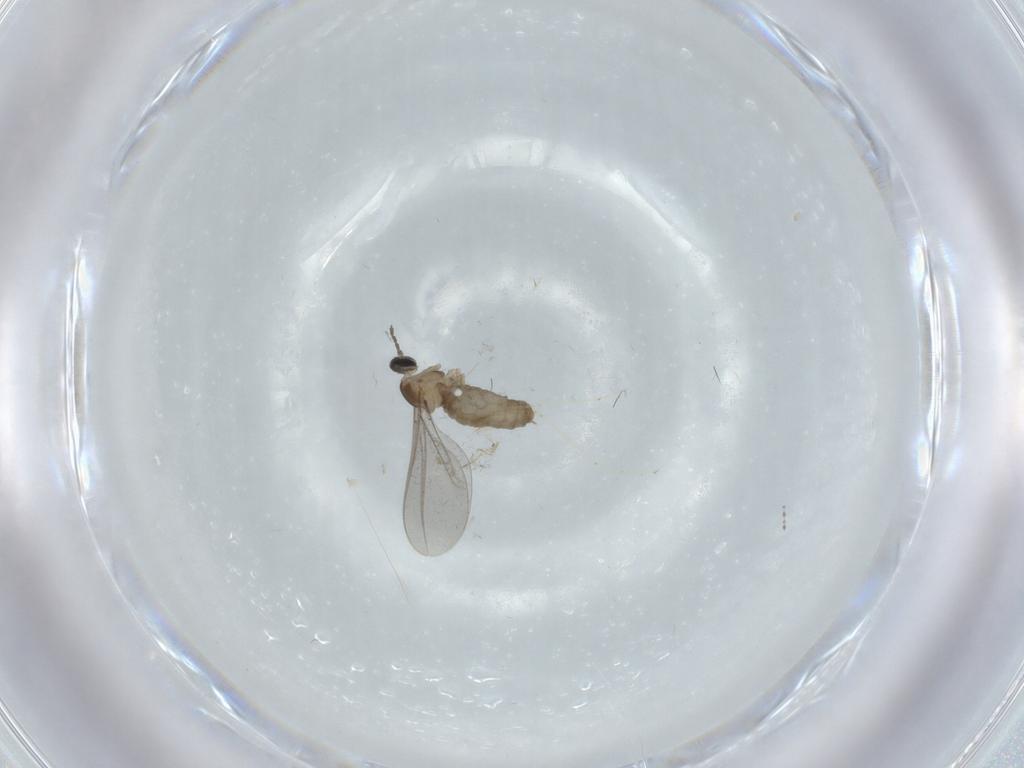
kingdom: Animalia
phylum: Arthropoda
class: Insecta
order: Diptera
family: Cecidomyiidae
